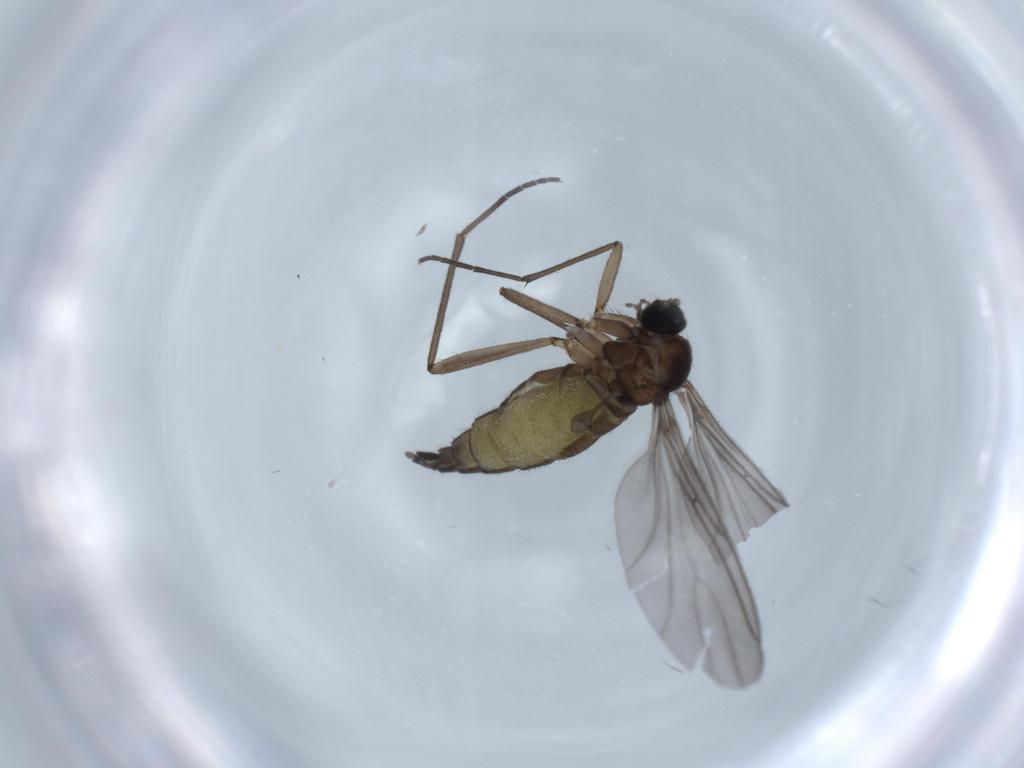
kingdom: Animalia
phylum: Arthropoda
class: Insecta
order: Diptera
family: Sciaridae
